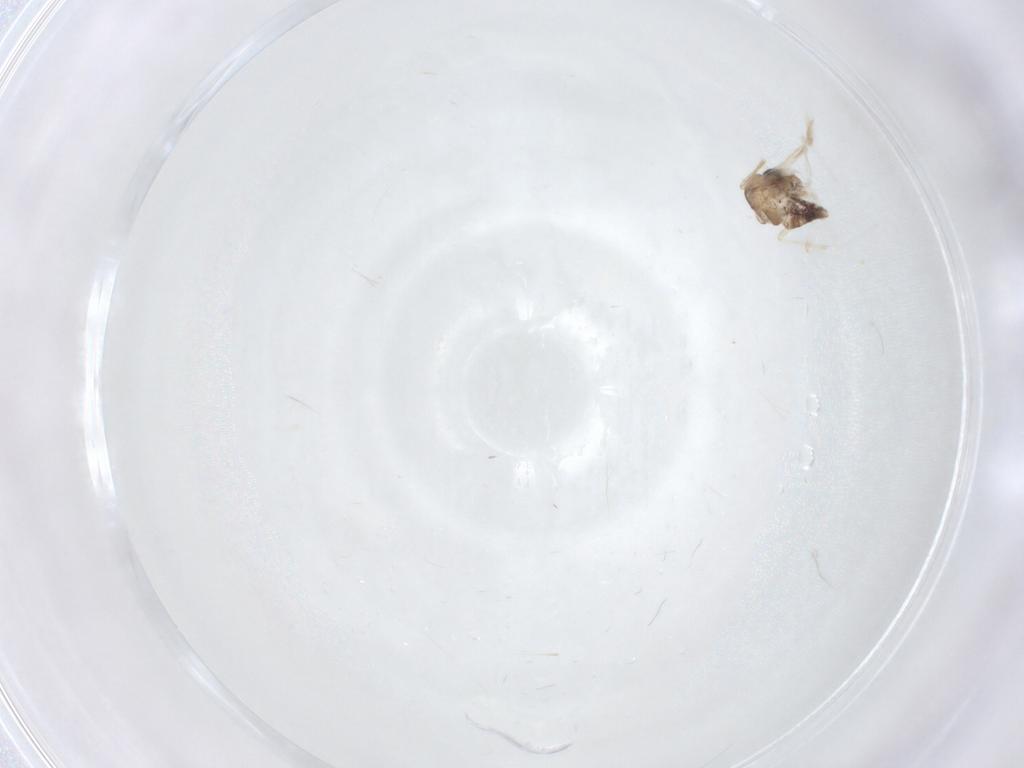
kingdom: Animalia
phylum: Arthropoda
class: Insecta
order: Diptera
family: Chironomidae
